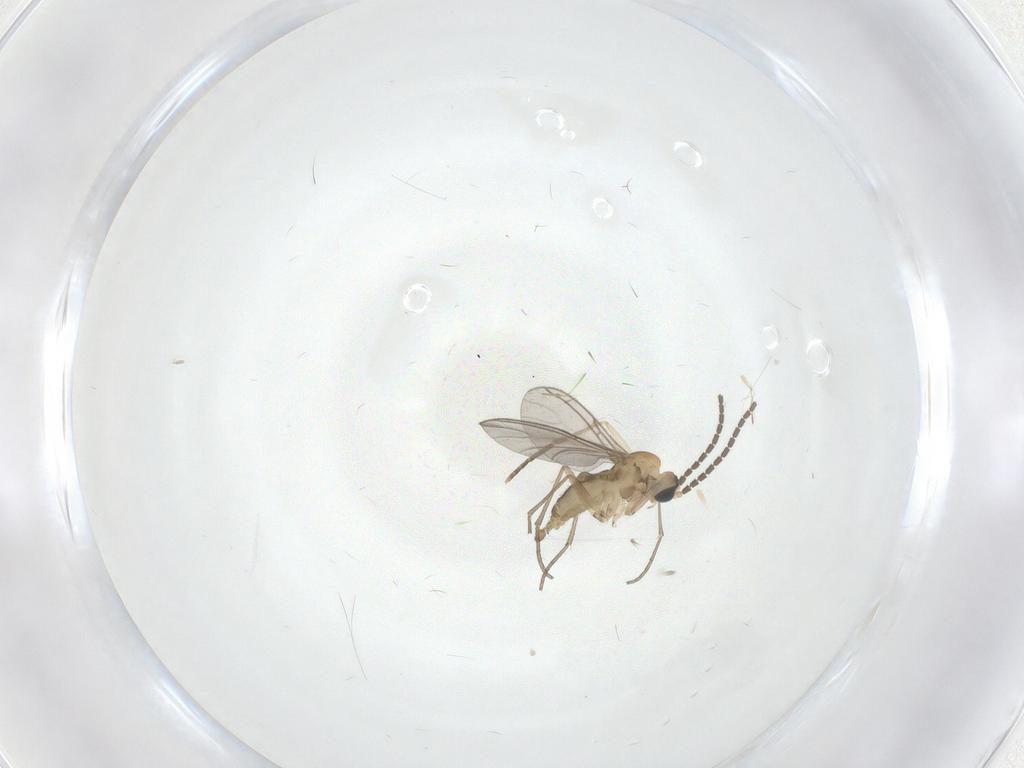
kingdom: Animalia
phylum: Arthropoda
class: Insecta
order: Diptera
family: Sciaridae
